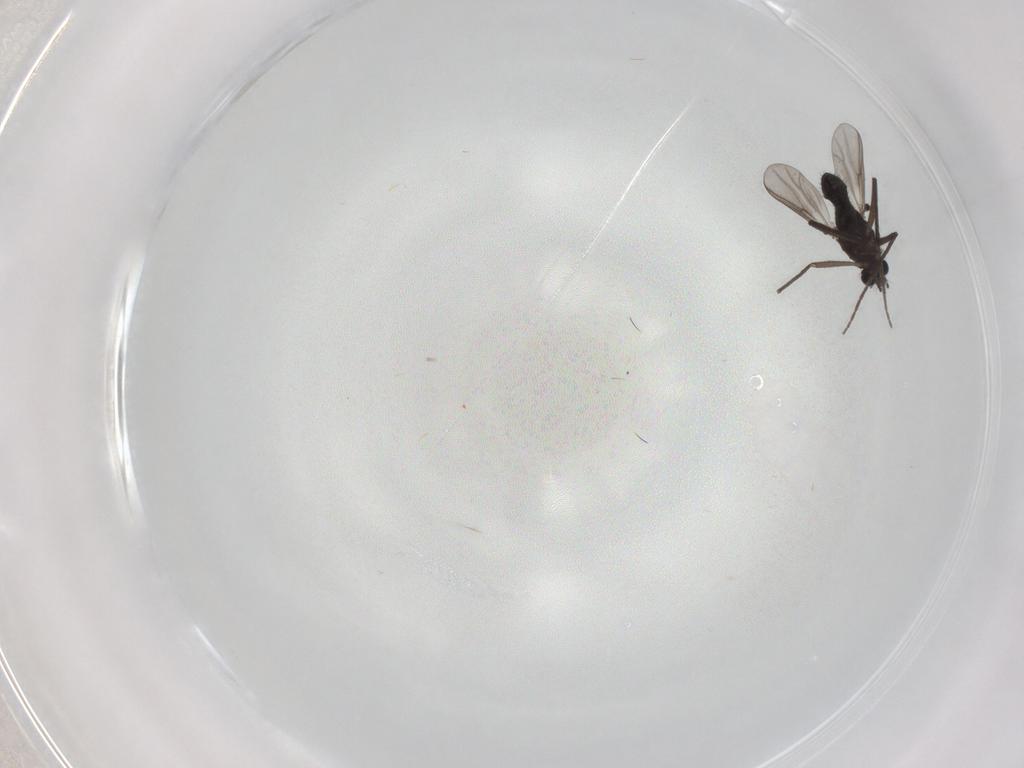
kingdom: Animalia
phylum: Arthropoda
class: Insecta
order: Diptera
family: Chironomidae
